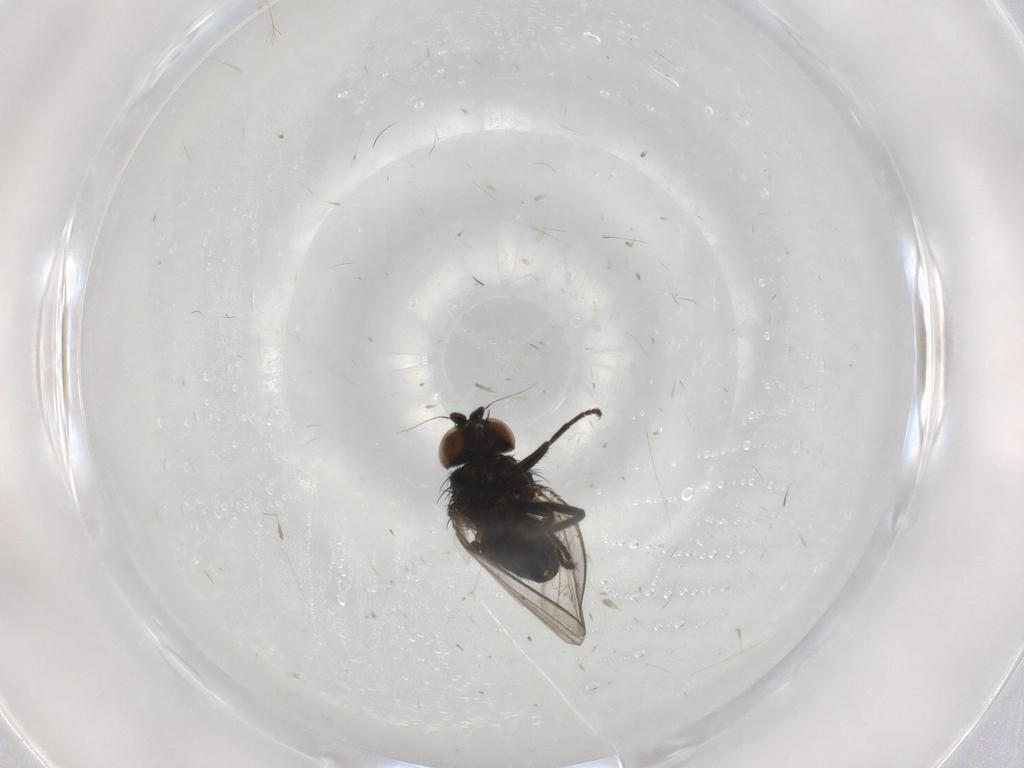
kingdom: Animalia
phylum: Arthropoda
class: Insecta
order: Diptera
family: Milichiidae
